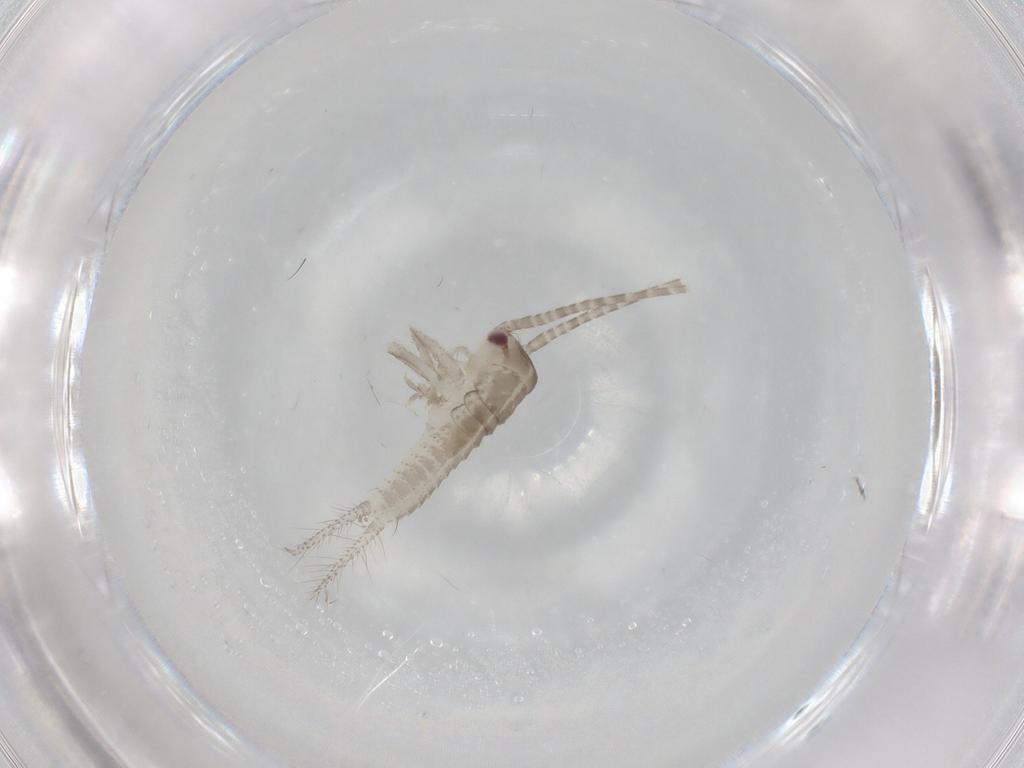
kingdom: Animalia
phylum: Arthropoda
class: Insecta
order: Orthoptera
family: Gryllidae
